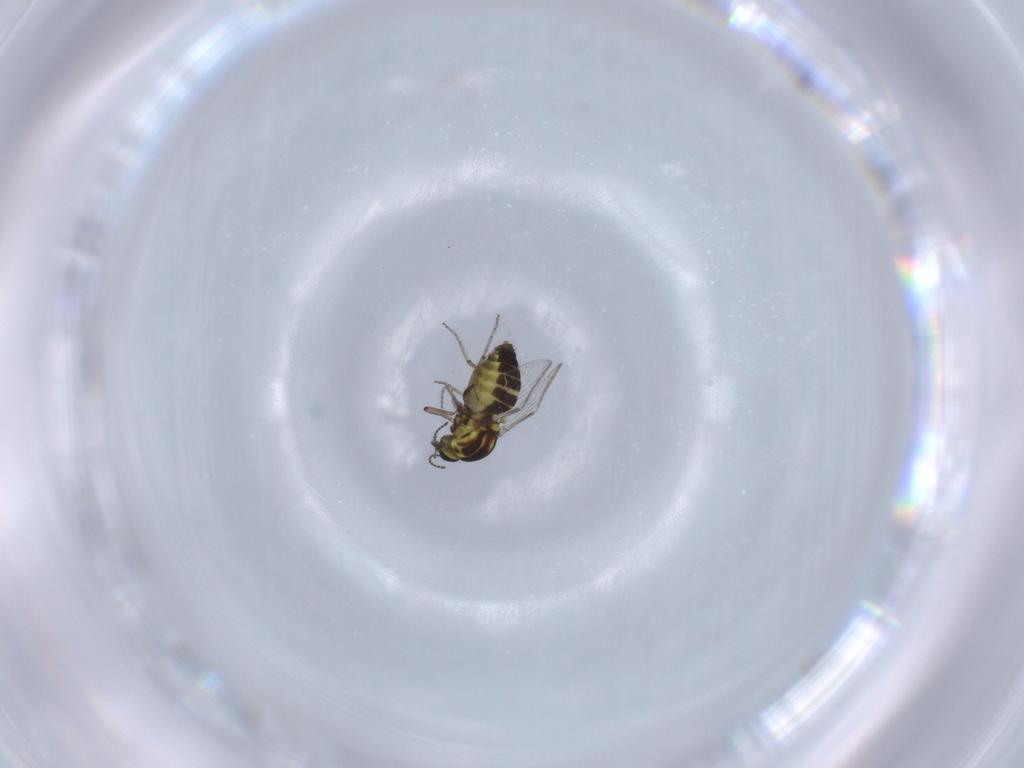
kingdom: Animalia
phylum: Arthropoda
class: Insecta
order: Diptera
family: Ceratopogonidae
